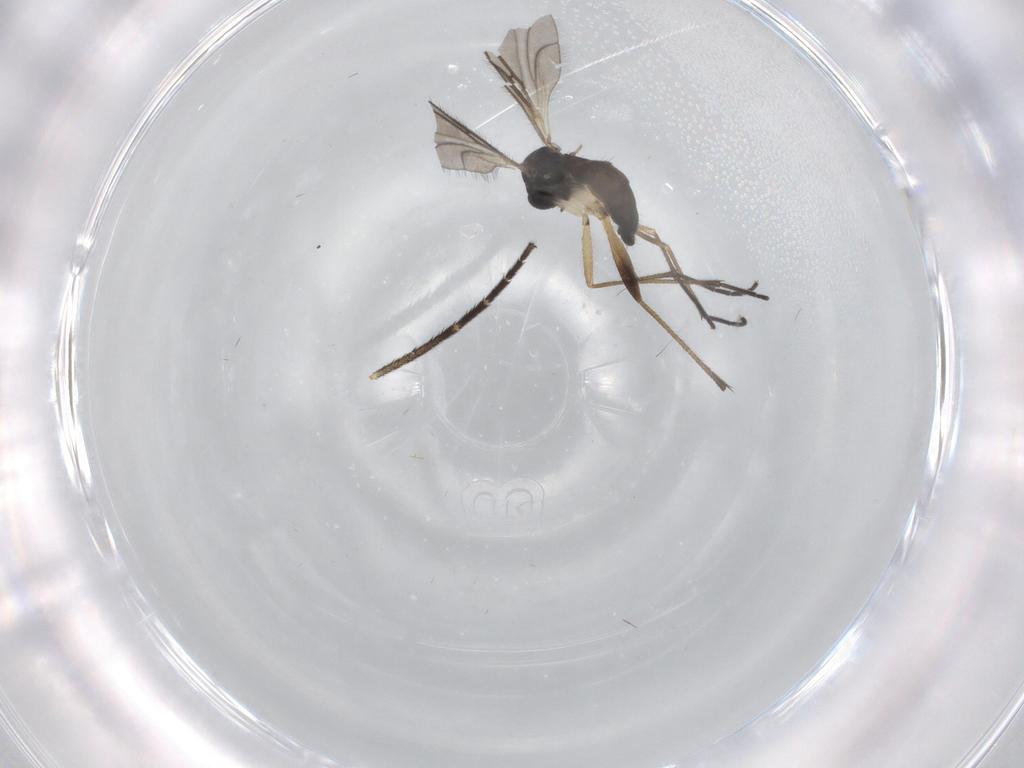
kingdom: Animalia
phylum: Arthropoda
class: Insecta
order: Diptera
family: Sciaridae
